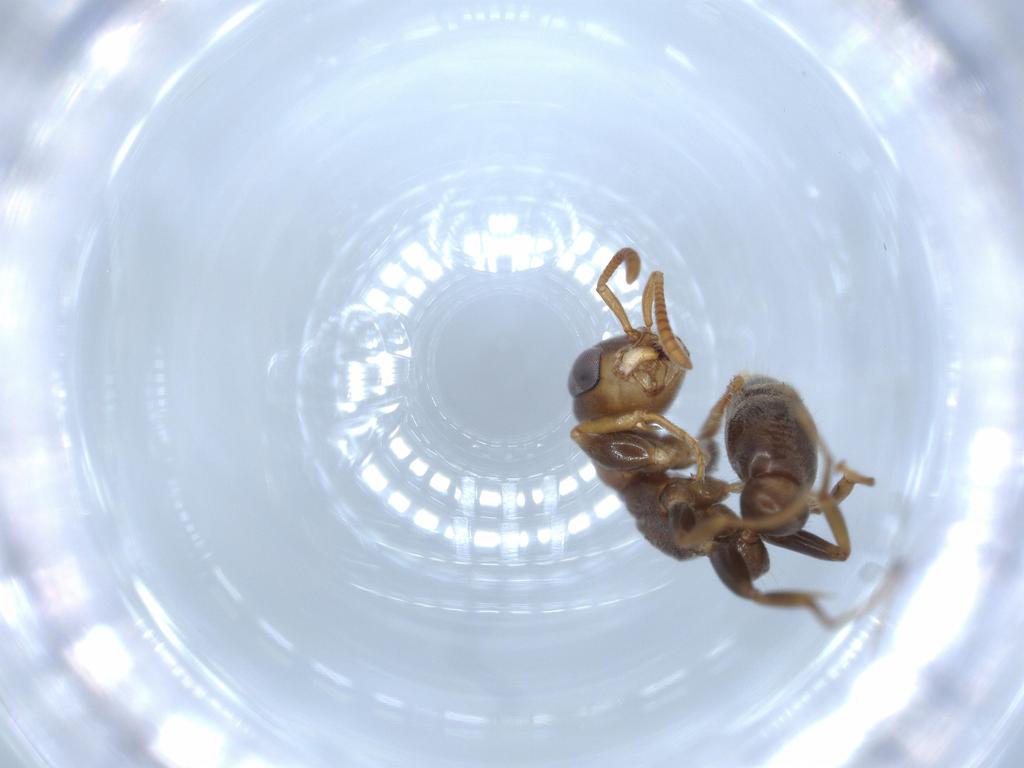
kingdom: Animalia
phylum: Arthropoda
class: Insecta
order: Hymenoptera
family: Formicidae
